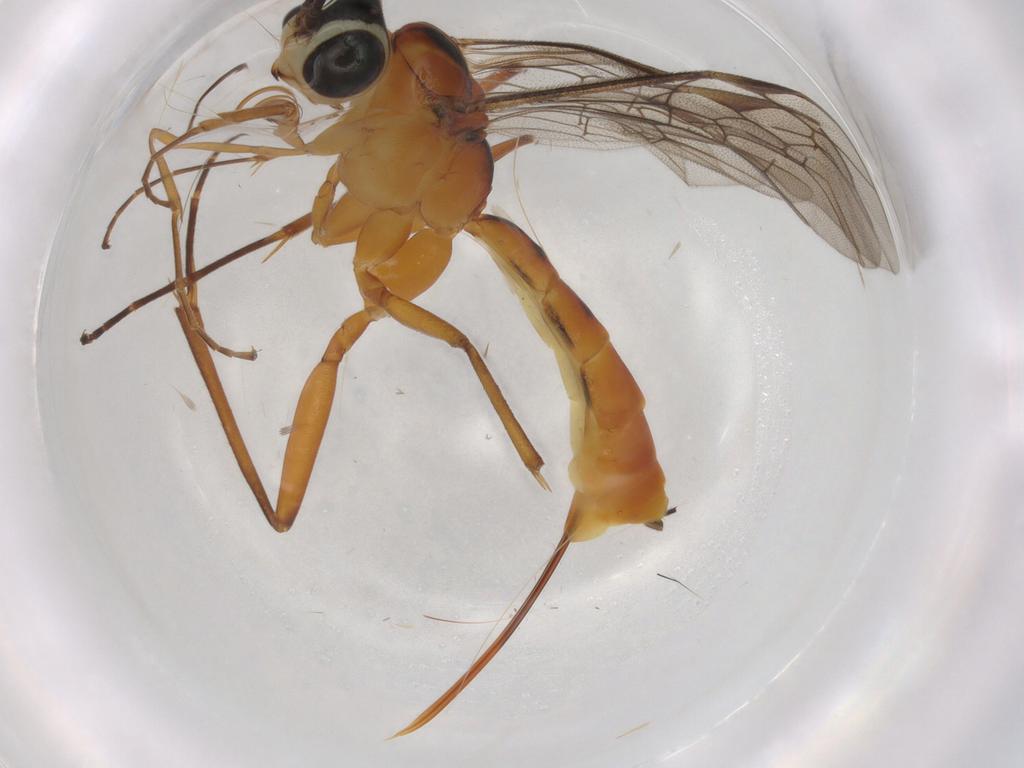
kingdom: Animalia
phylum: Arthropoda
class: Insecta
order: Hymenoptera
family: Ichneumonidae
